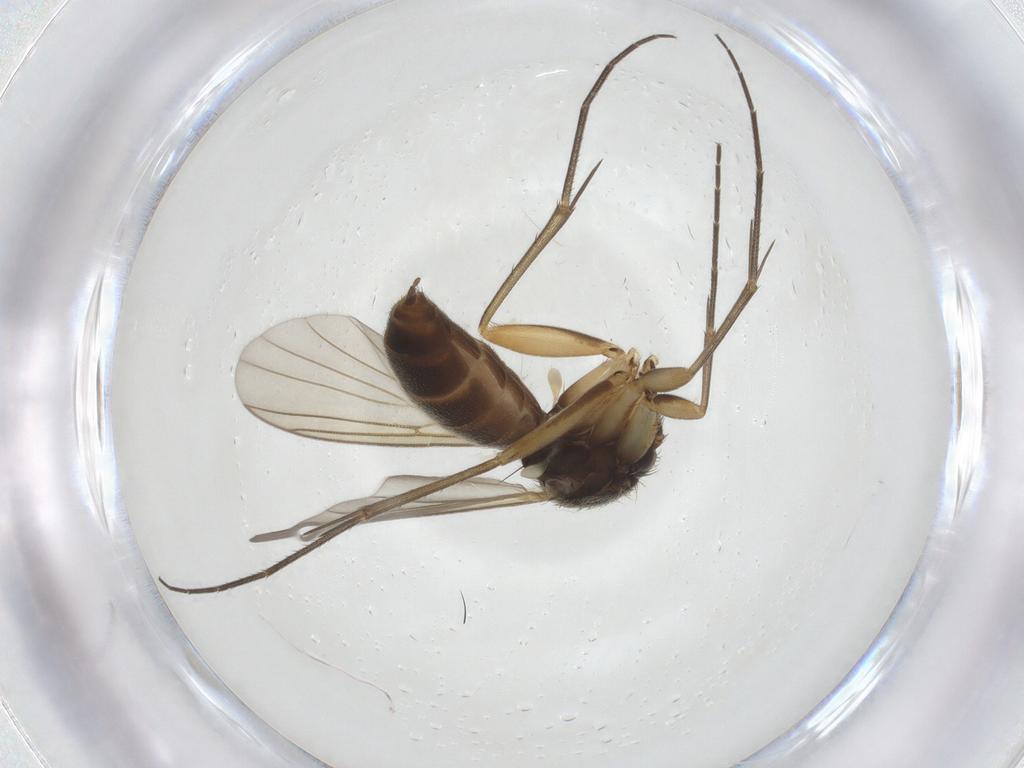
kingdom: Animalia
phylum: Arthropoda
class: Insecta
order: Diptera
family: Mycetophilidae
